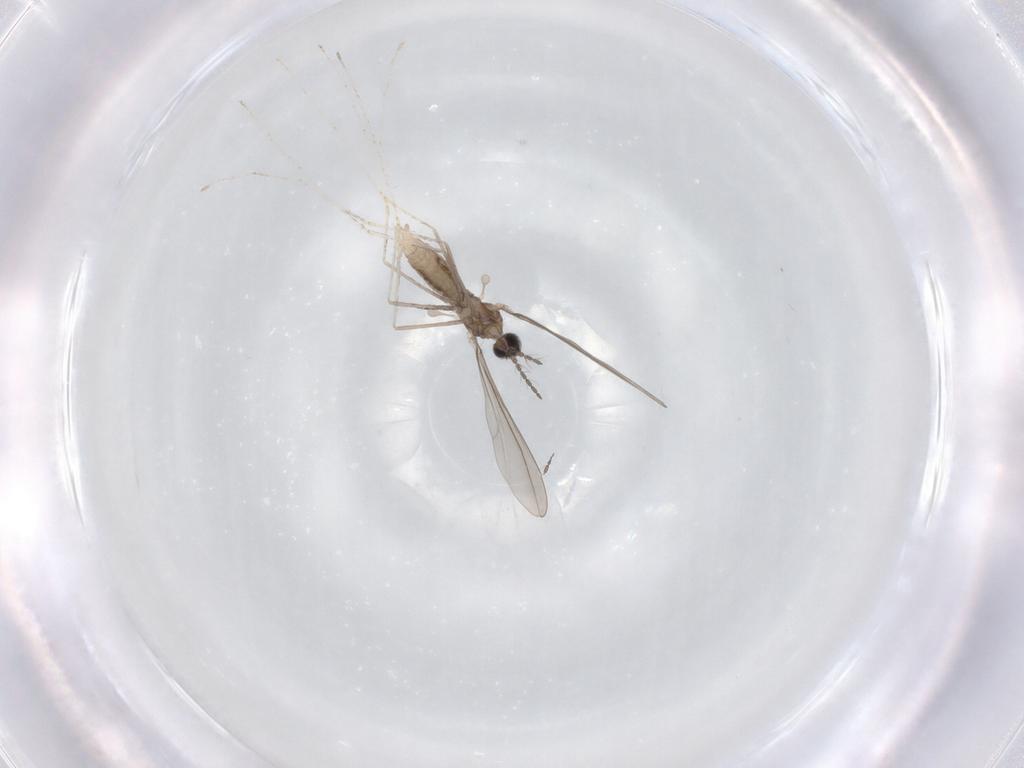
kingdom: Animalia
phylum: Arthropoda
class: Insecta
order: Diptera
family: Cecidomyiidae
